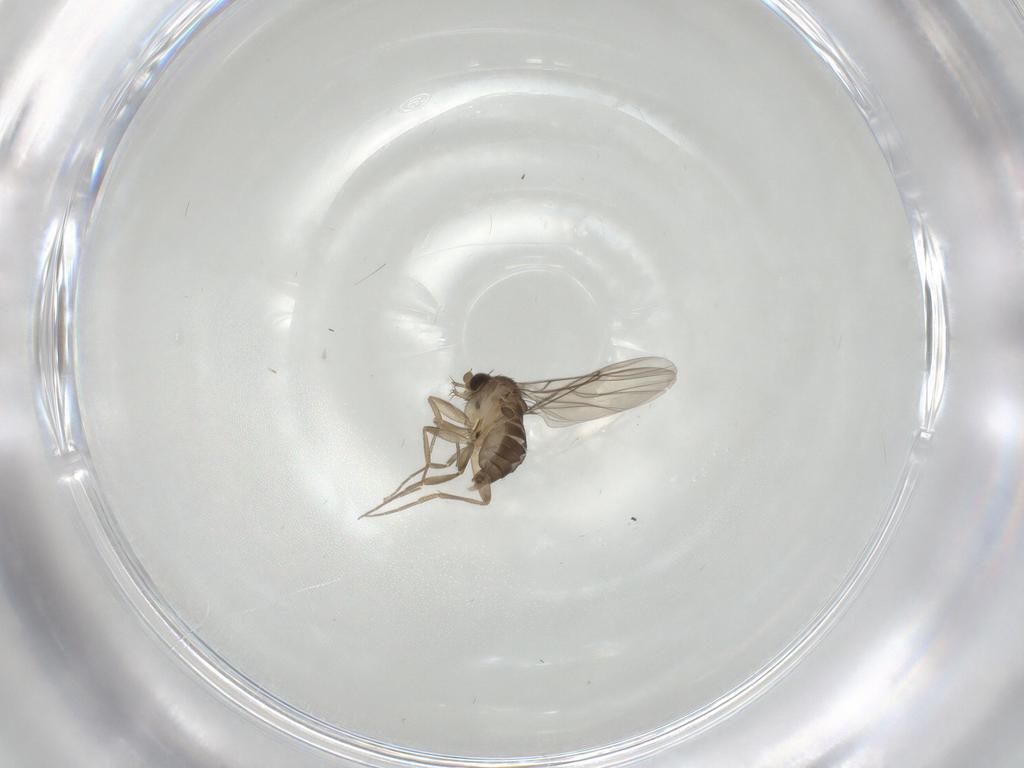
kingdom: Animalia
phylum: Arthropoda
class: Insecta
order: Diptera
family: Phoridae
